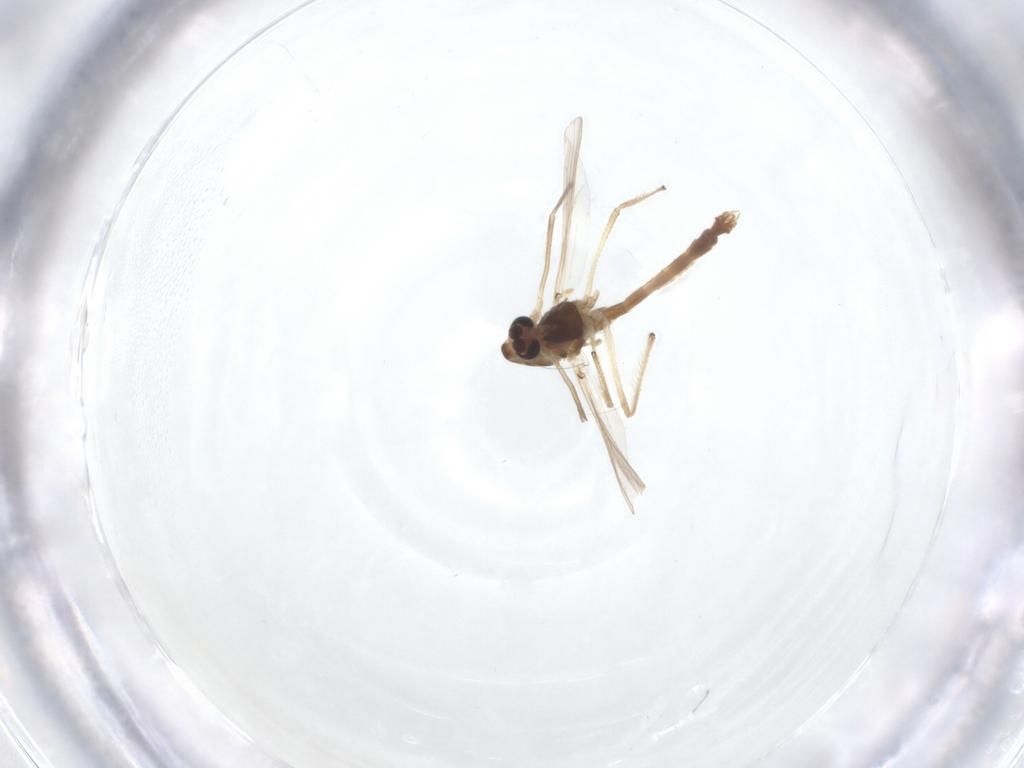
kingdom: Animalia
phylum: Arthropoda
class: Insecta
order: Diptera
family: Chironomidae
